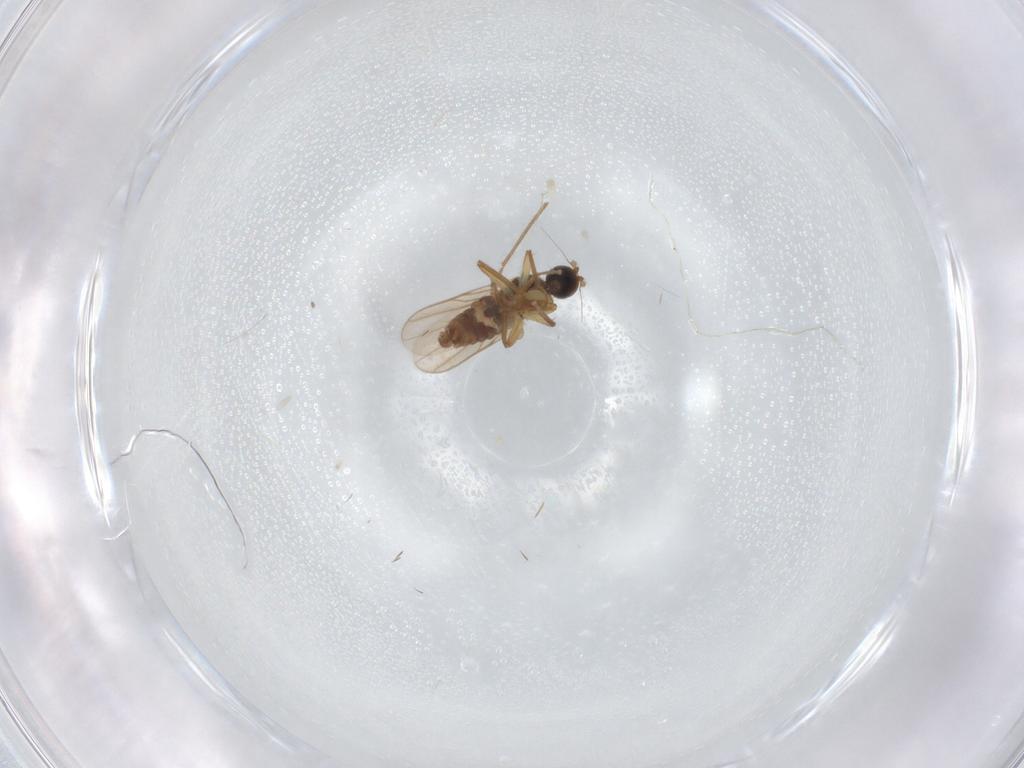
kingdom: Animalia
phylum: Arthropoda
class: Insecta
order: Diptera
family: Hybotidae
